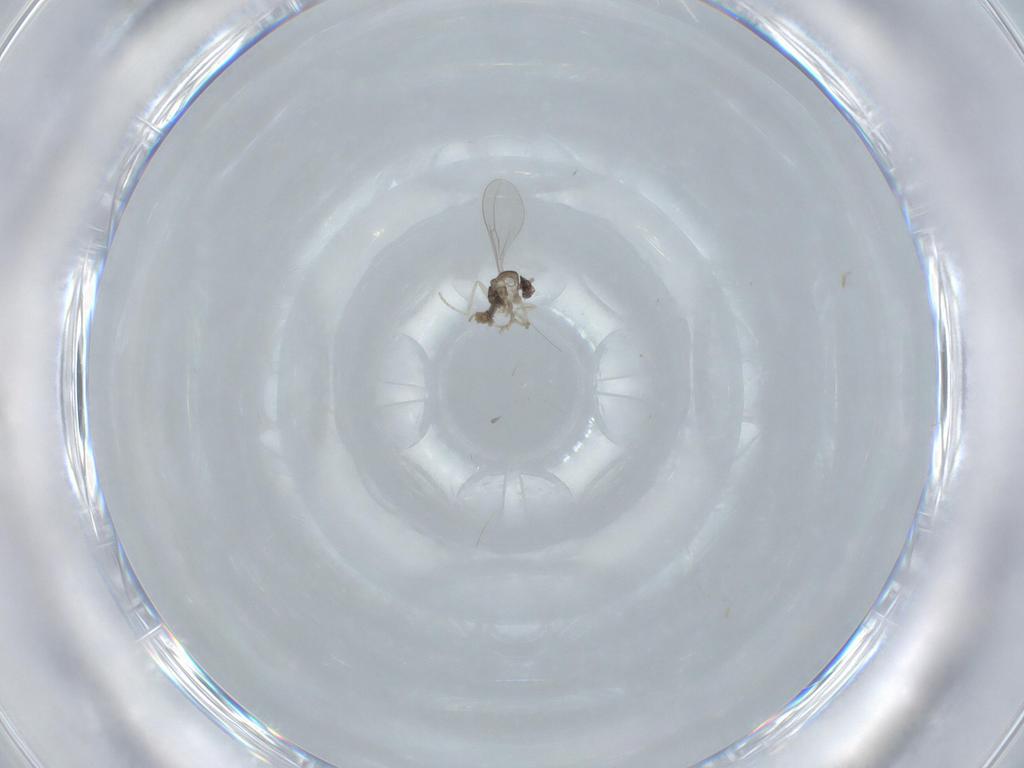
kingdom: Animalia
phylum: Arthropoda
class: Insecta
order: Diptera
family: Cecidomyiidae
